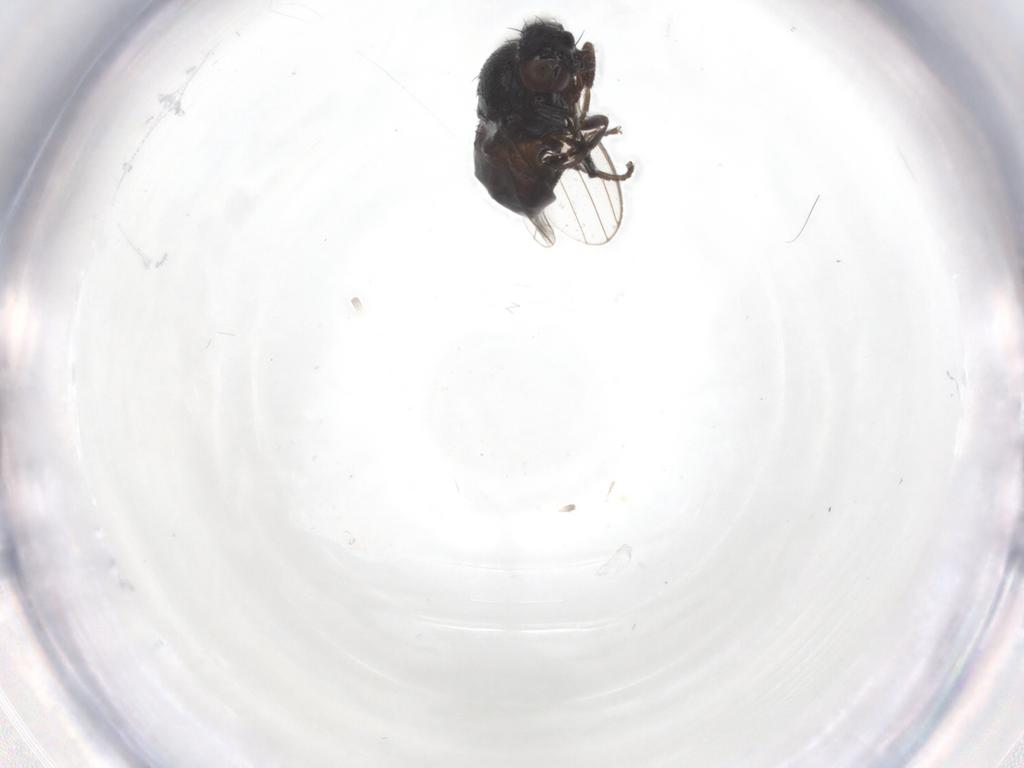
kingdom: Animalia
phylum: Arthropoda
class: Insecta
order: Diptera
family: Milichiidae
